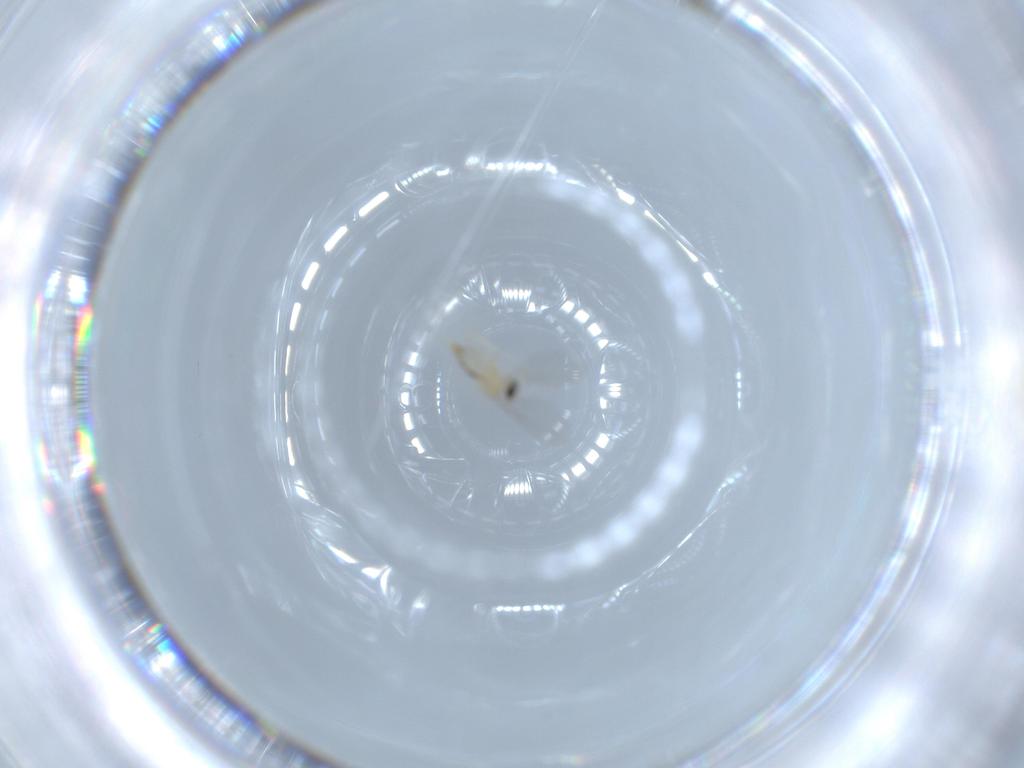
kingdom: Animalia
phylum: Arthropoda
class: Insecta
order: Diptera
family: Cecidomyiidae
